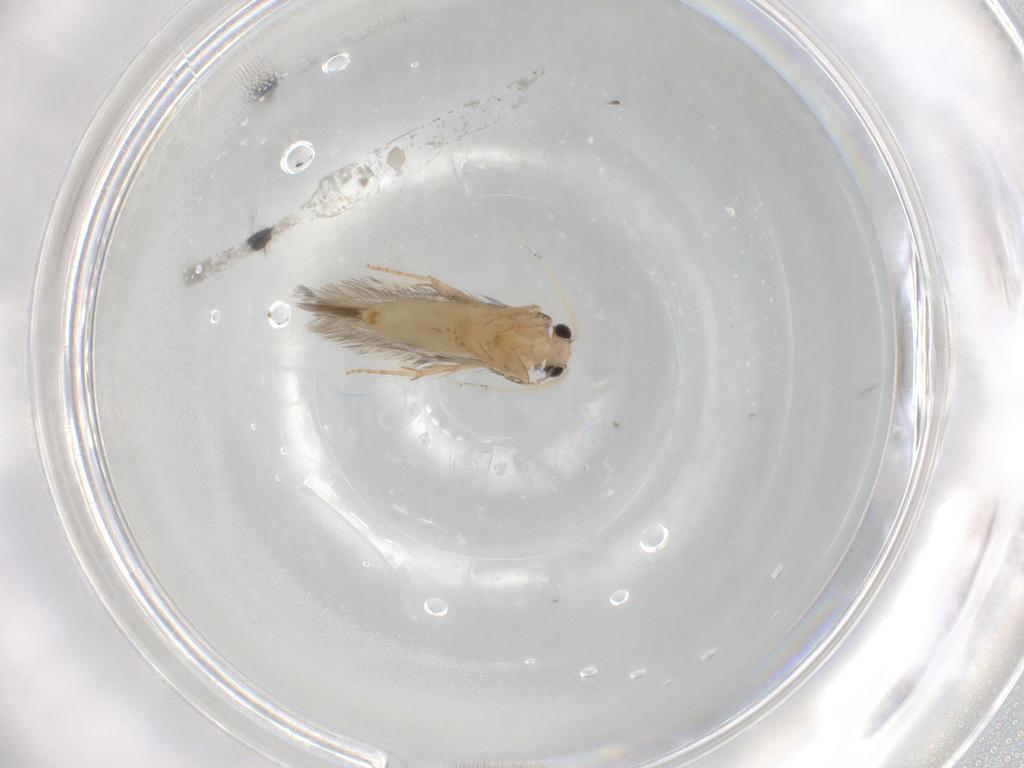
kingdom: Animalia
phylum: Arthropoda
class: Insecta
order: Trichoptera
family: Hydroptilidae
